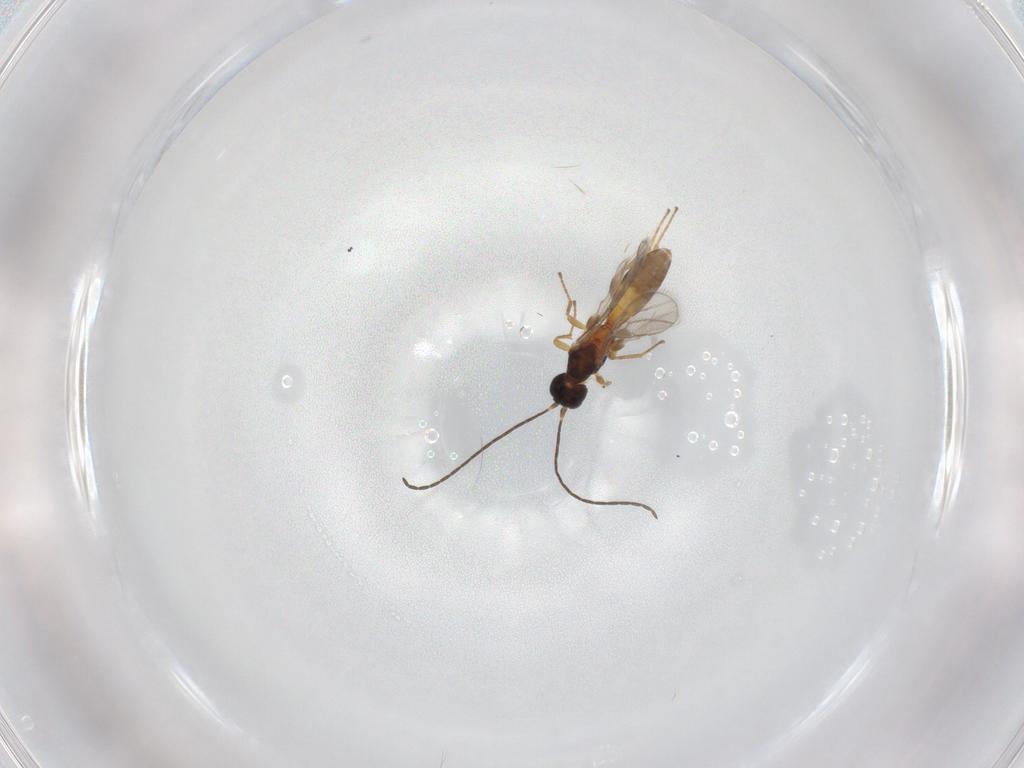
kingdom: Animalia
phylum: Arthropoda
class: Insecta
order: Hymenoptera
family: Braconidae
